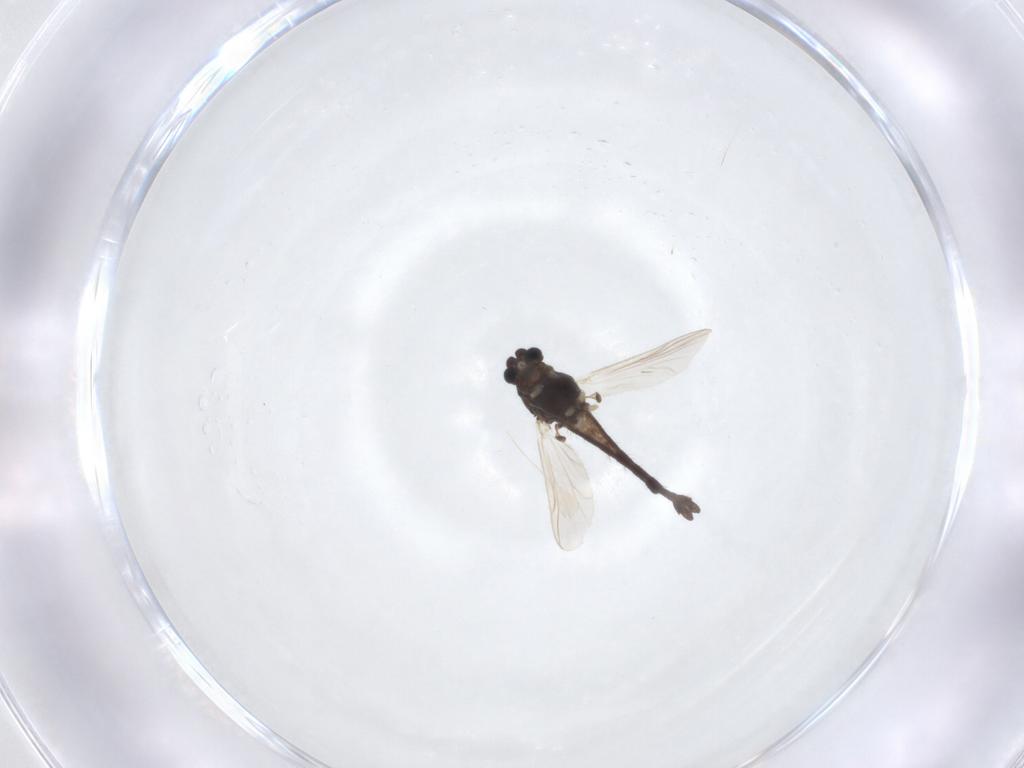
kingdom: Animalia
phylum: Arthropoda
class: Insecta
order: Diptera
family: Chironomidae
